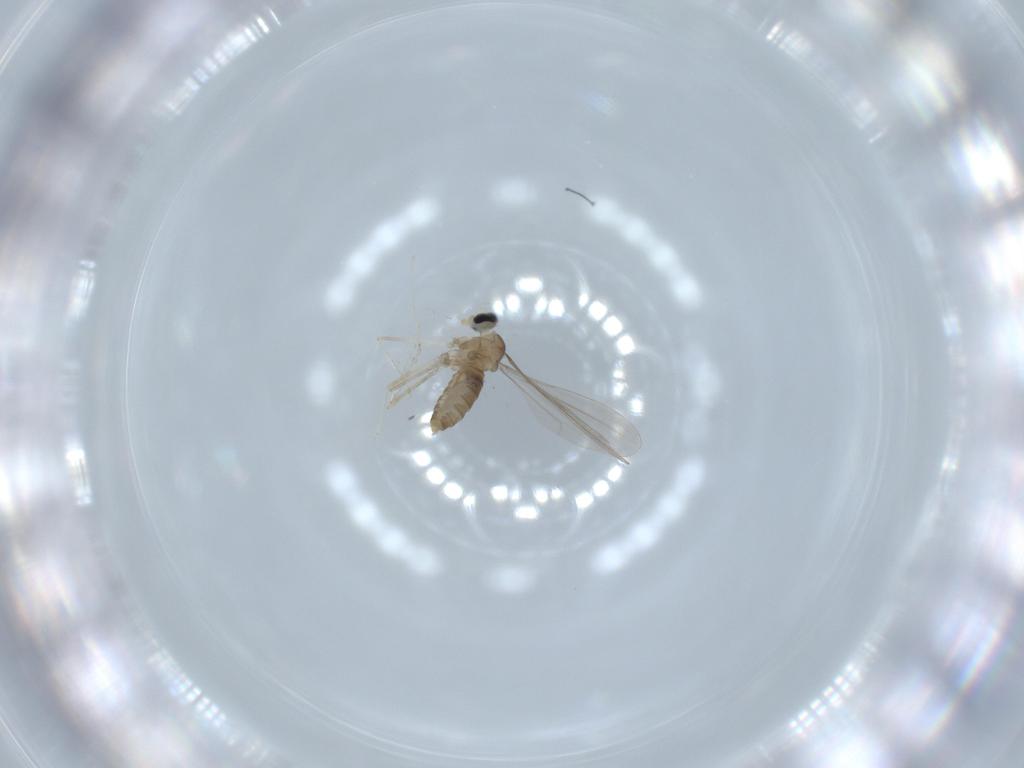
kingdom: Animalia
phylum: Arthropoda
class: Insecta
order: Diptera
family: Cecidomyiidae
